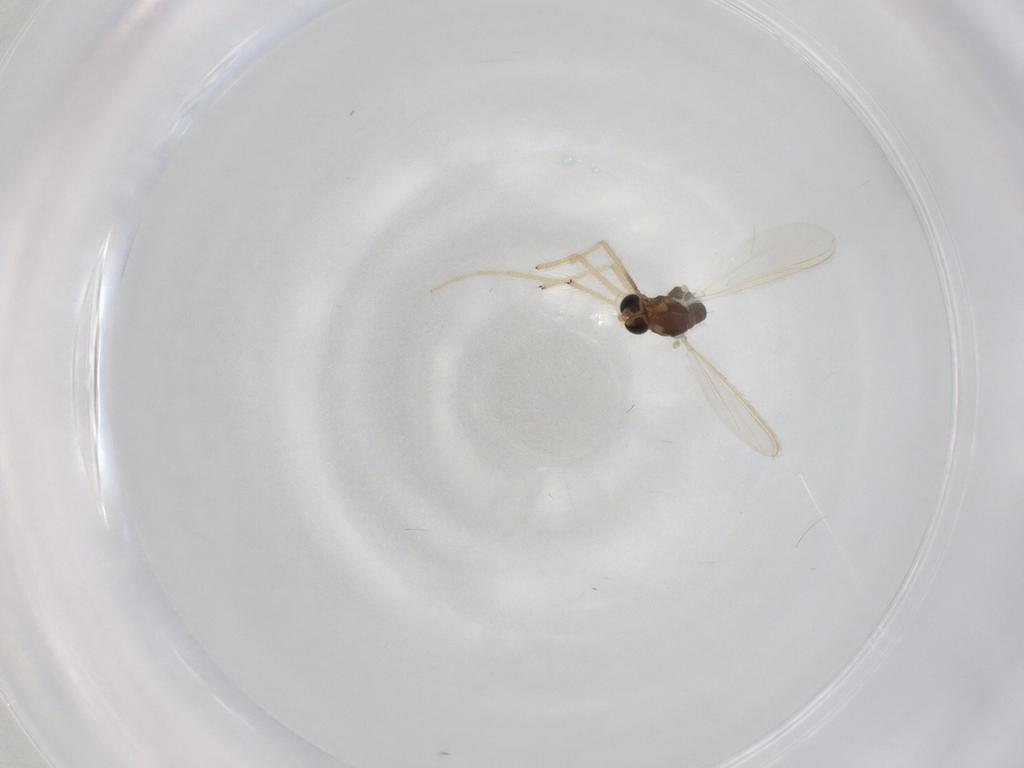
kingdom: Animalia
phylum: Arthropoda
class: Insecta
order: Diptera
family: Chironomidae
